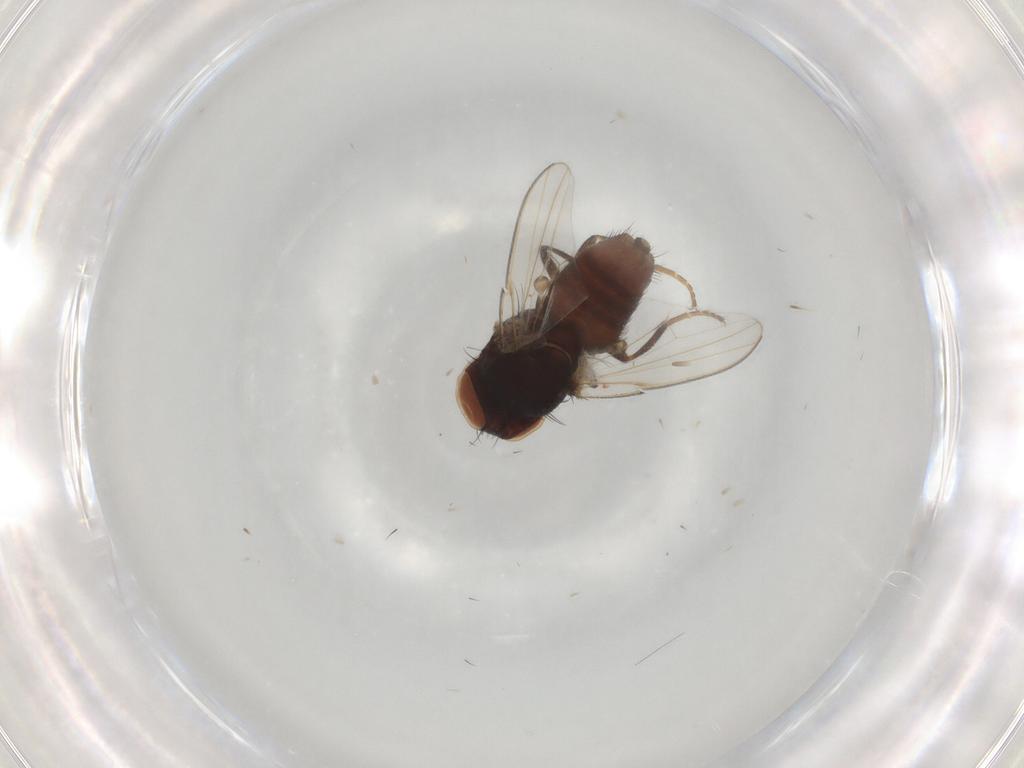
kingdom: Animalia
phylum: Arthropoda
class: Insecta
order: Diptera
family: Milichiidae
